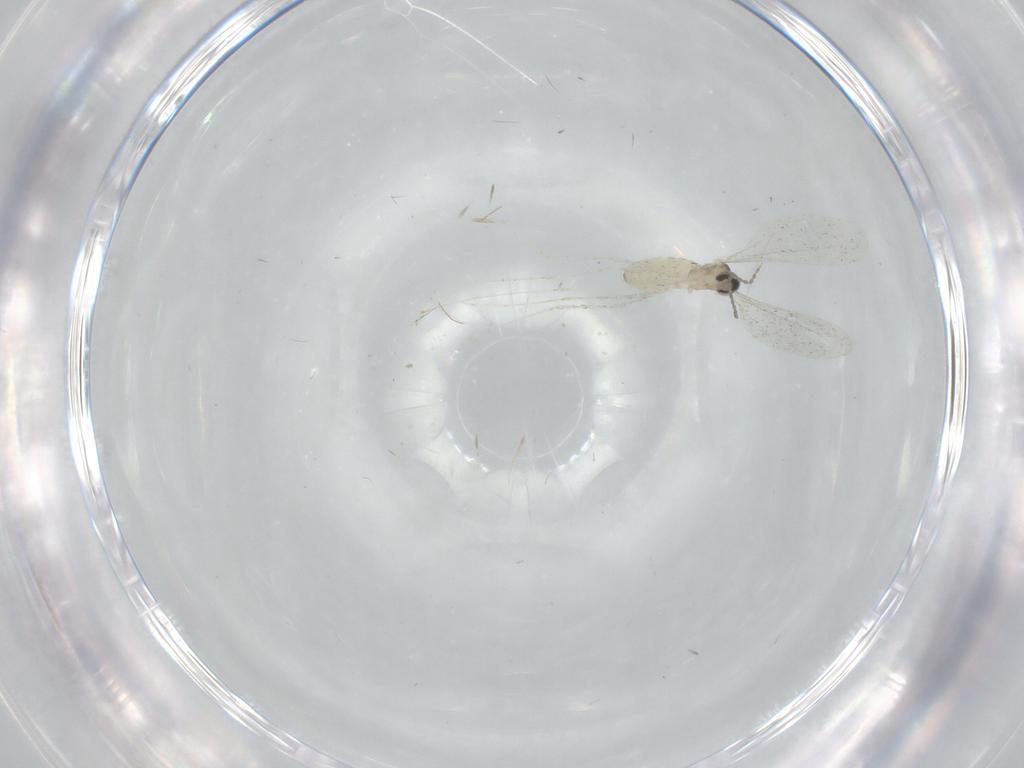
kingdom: Animalia
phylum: Arthropoda
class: Insecta
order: Diptera
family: Cecidomyiidae
